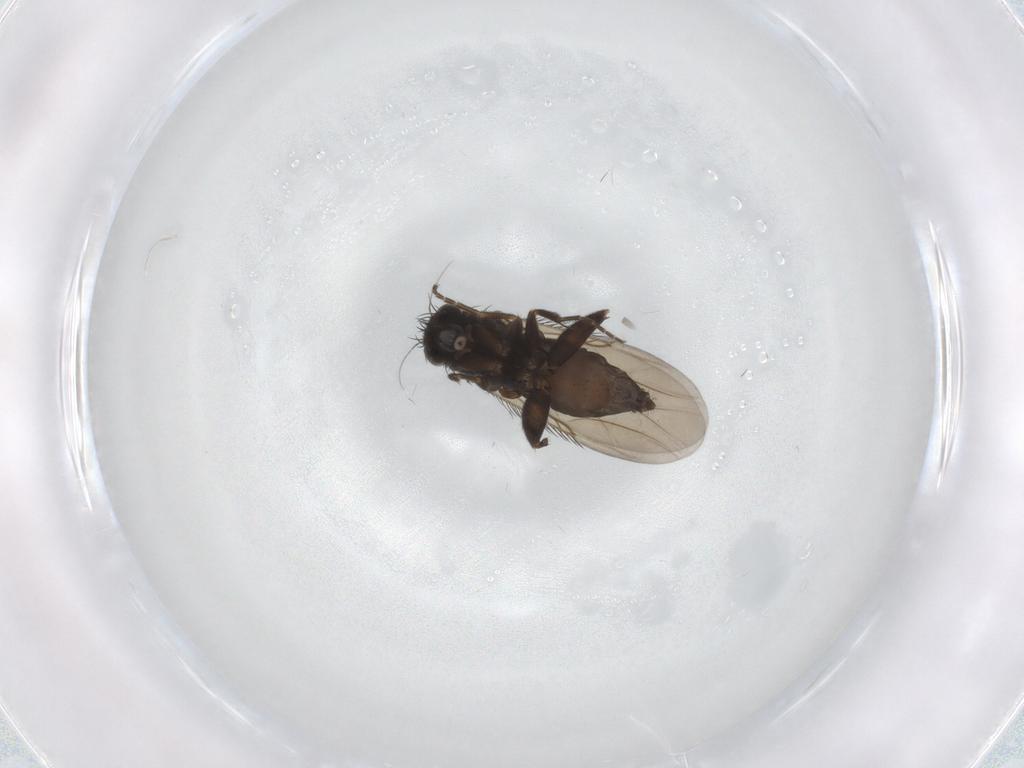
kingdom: Animalia
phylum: Arthropoda
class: Insecta
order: Diptera
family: Phoridae
